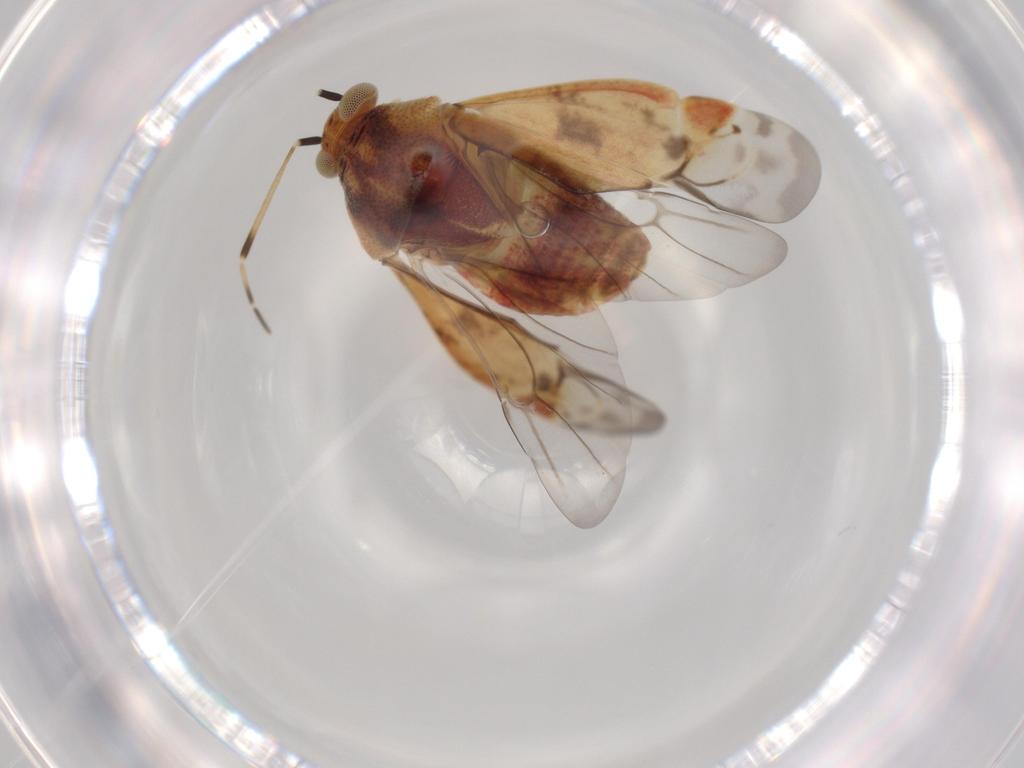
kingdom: Animalia
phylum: Arthropoda
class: Insecta
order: Hemiptera
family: Miridae
